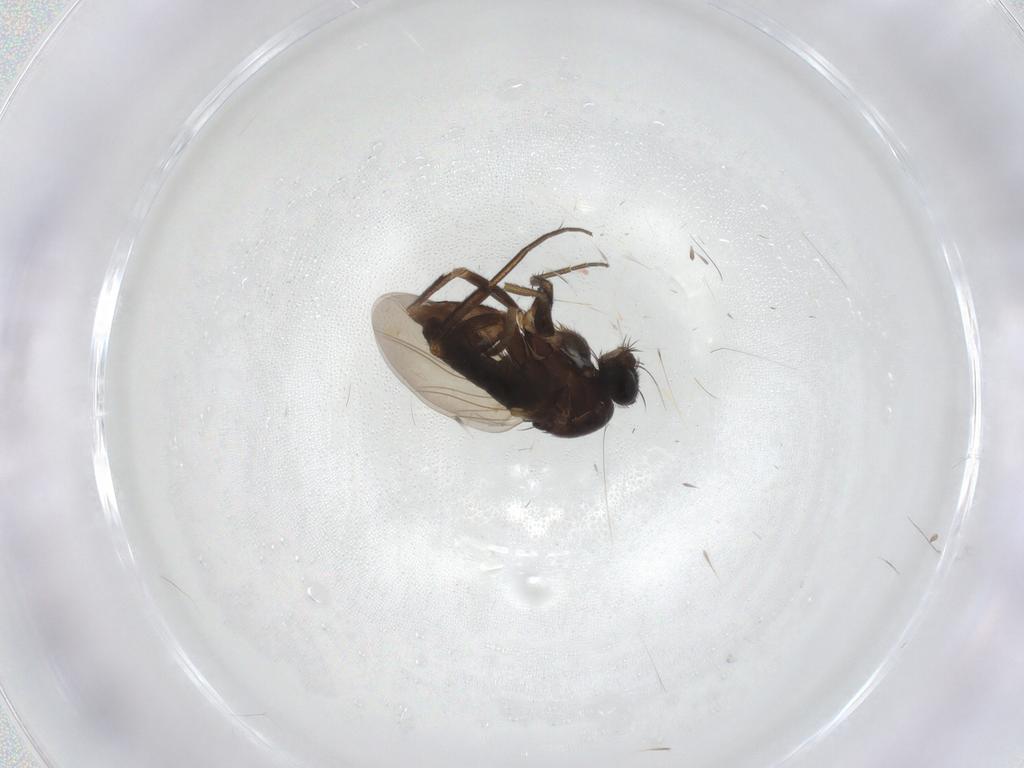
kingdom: Animalia
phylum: Arthropoda
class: Insecta
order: Diptera
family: Phoridae
